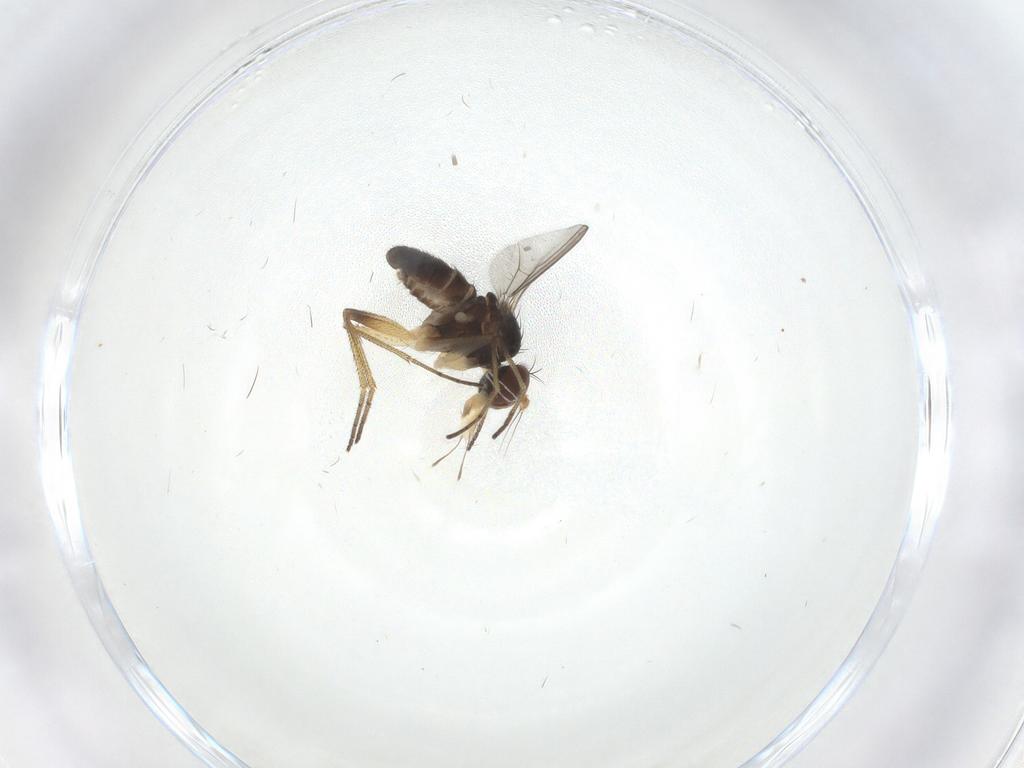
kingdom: Animalia
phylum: Arthropoda
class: Insecta
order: Diptera
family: Dolichopodidae
